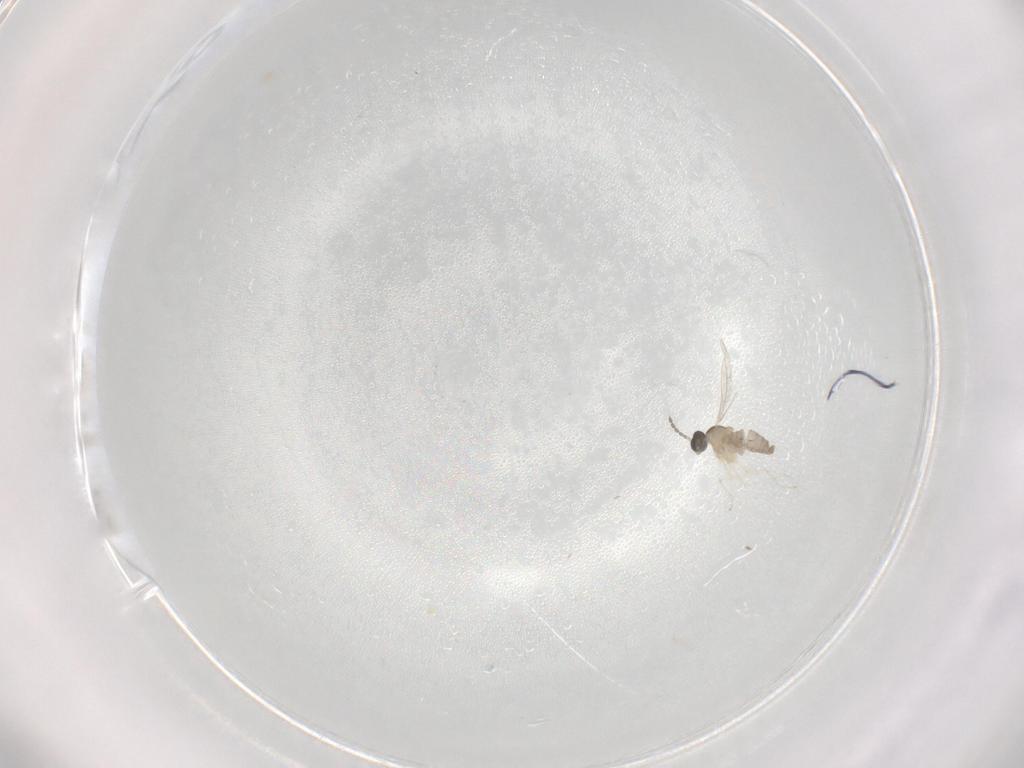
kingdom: Animalia
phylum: Arthropoda
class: Insecta
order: Diptera
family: Cecidomyiidae
